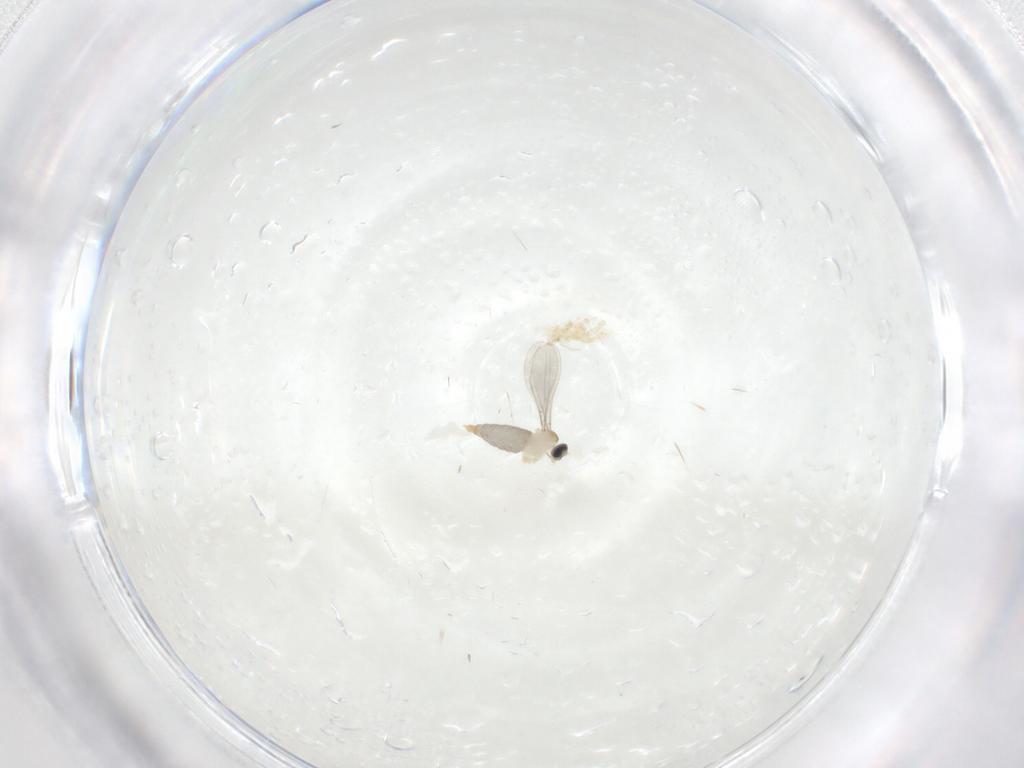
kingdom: Animalia
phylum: Arthropoda
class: Insecta
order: Diptera
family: Cecidomyiidae
